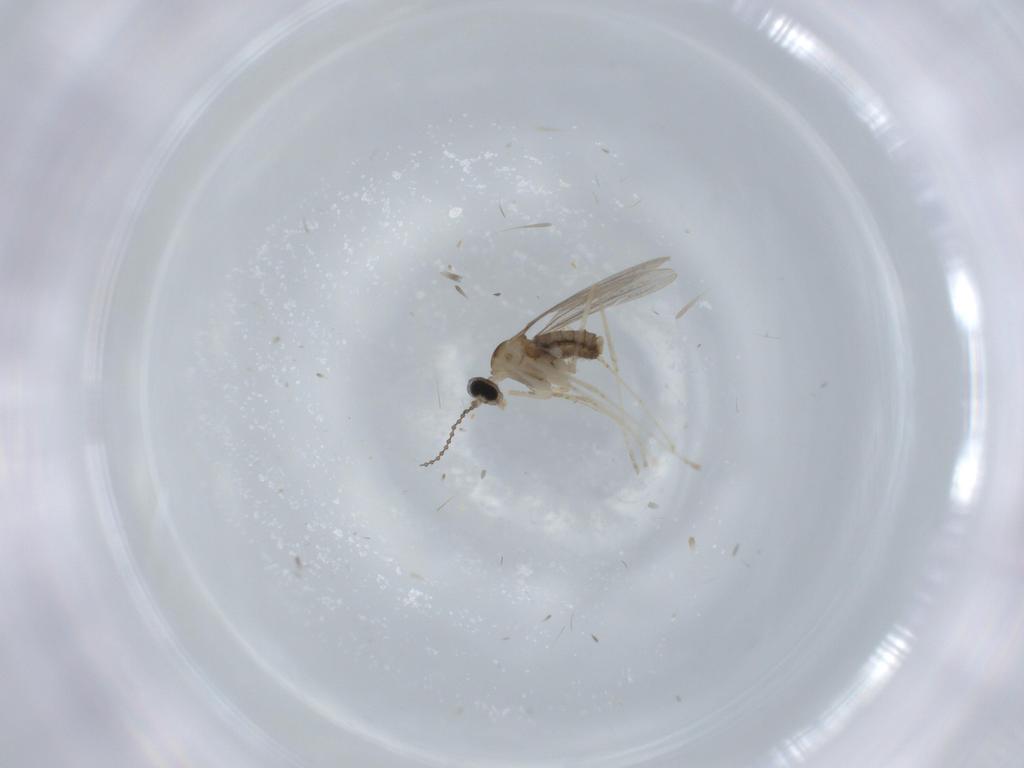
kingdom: Animalia
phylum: Arthropoda
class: Insecta
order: Diptera
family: Cecidomyiidae
